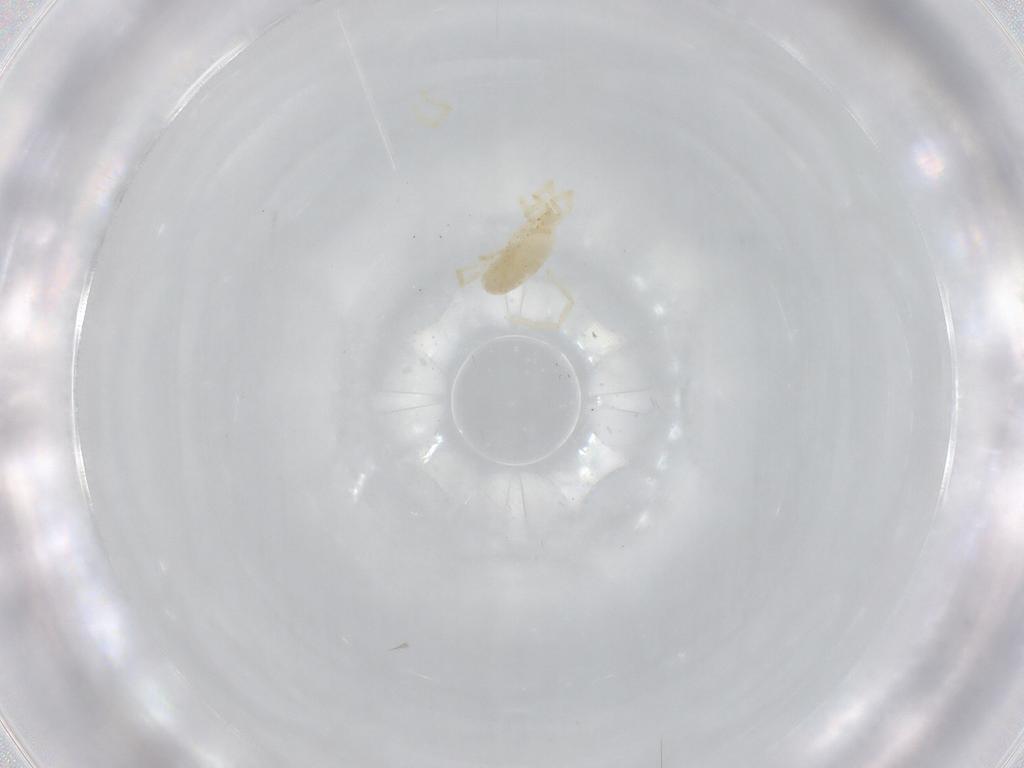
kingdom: Animalia
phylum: Arthropoda
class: Arachnida
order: Trombidiformes
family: Erythraeidae
